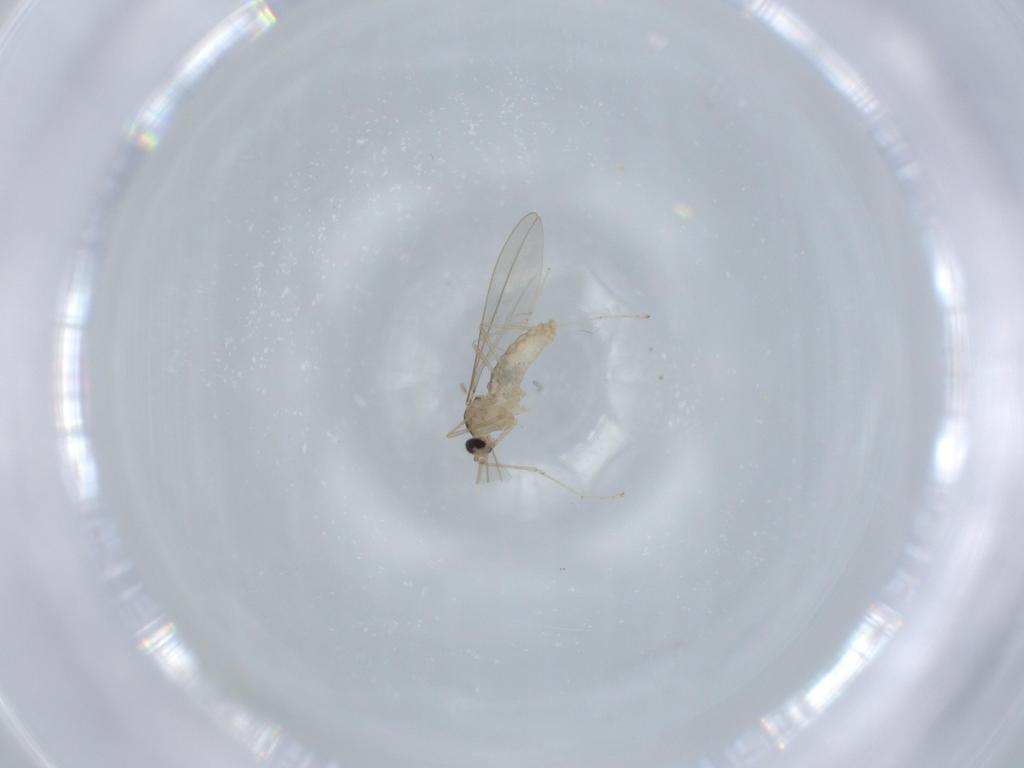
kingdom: Animalia
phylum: Arthropoda
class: Insecta
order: Diptera
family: Cecidomyiidae
